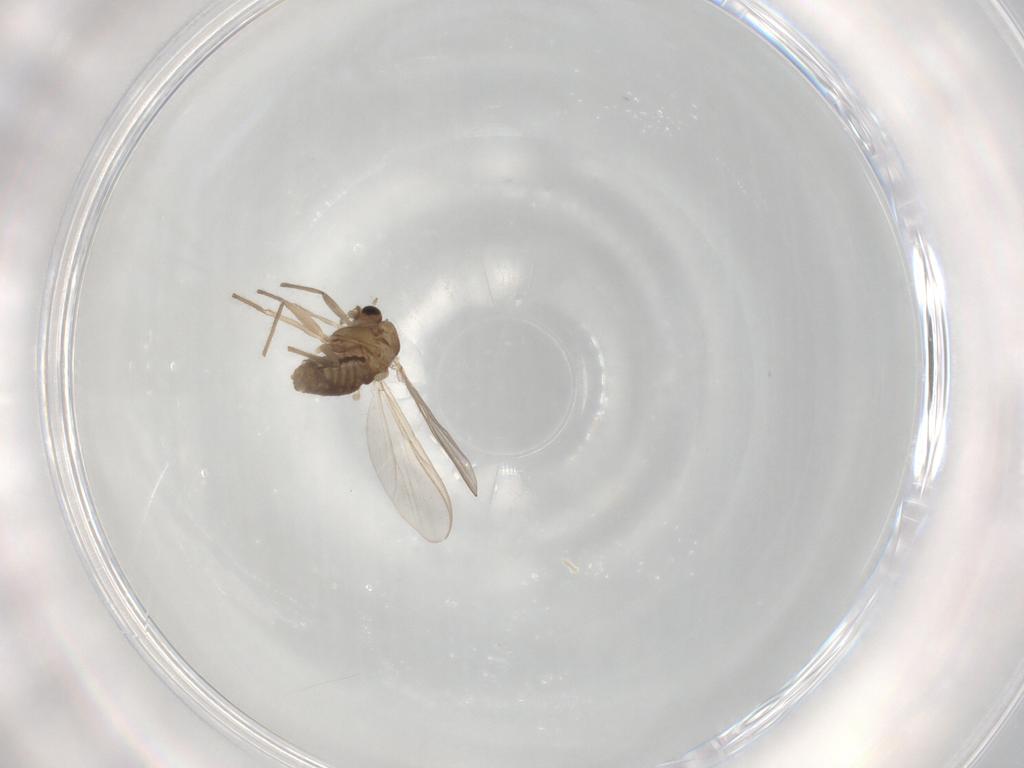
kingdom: Animalia
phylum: Arthropoda
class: Insecta
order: Diptera
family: Chironomidae
